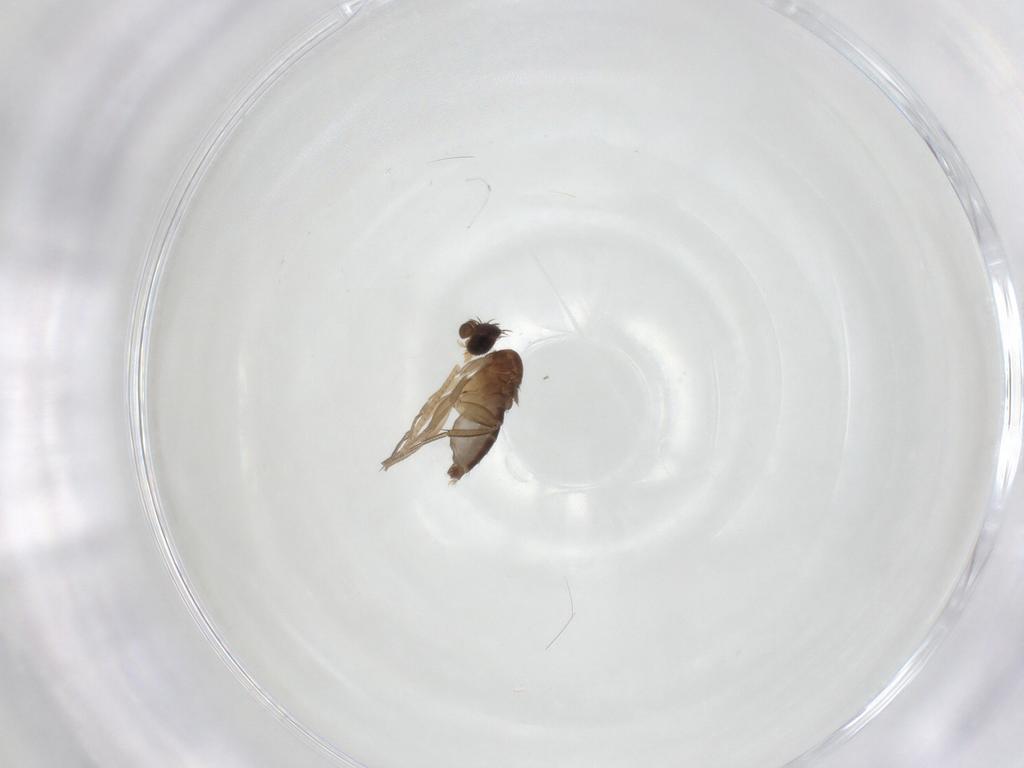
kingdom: Animalia
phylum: Arthropoda
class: Insecta
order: Diptera
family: Phoridae
